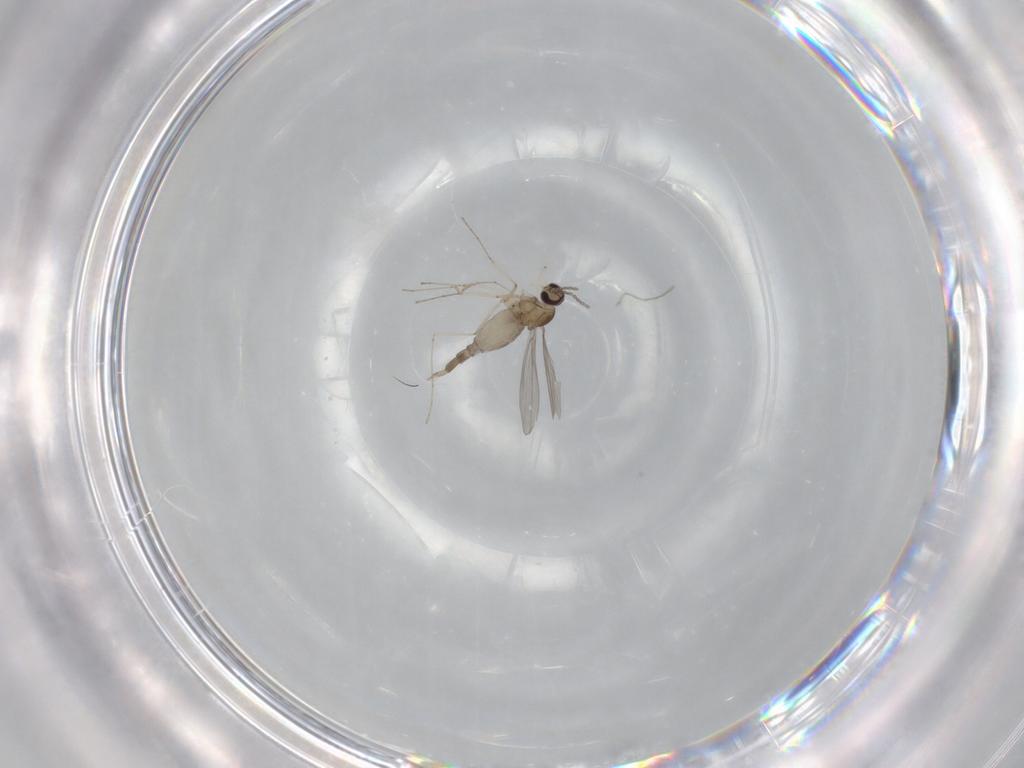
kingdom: Animalia
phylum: Arthropoda
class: Insecta
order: Diptera
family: Cecidomyiidae
